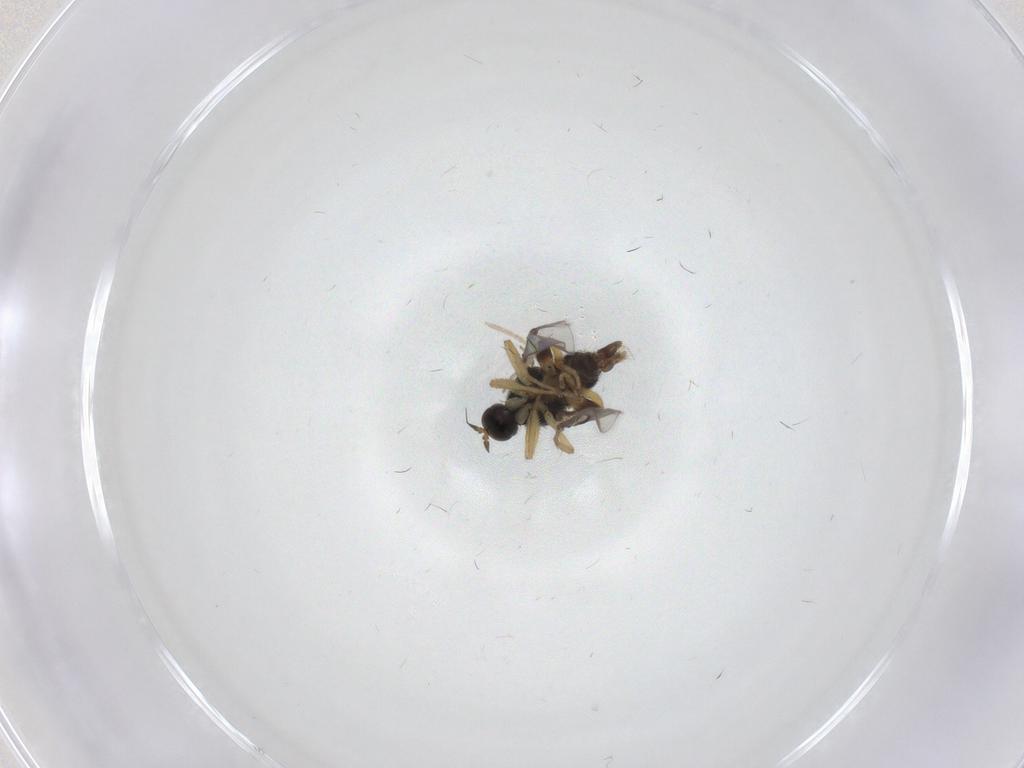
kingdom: Animalia
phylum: Arthropoda
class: Insecta
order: Diptera
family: Hybotidae
